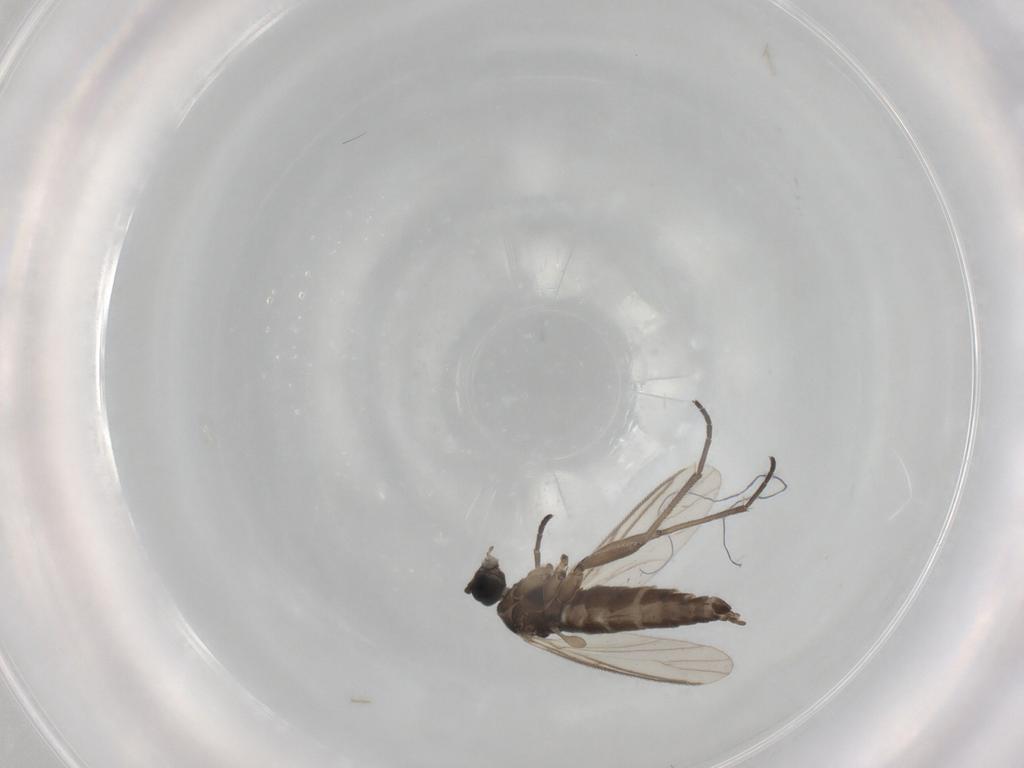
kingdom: Animalia
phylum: Arthropoda
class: Insecta
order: Diptera
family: Sciaridae
